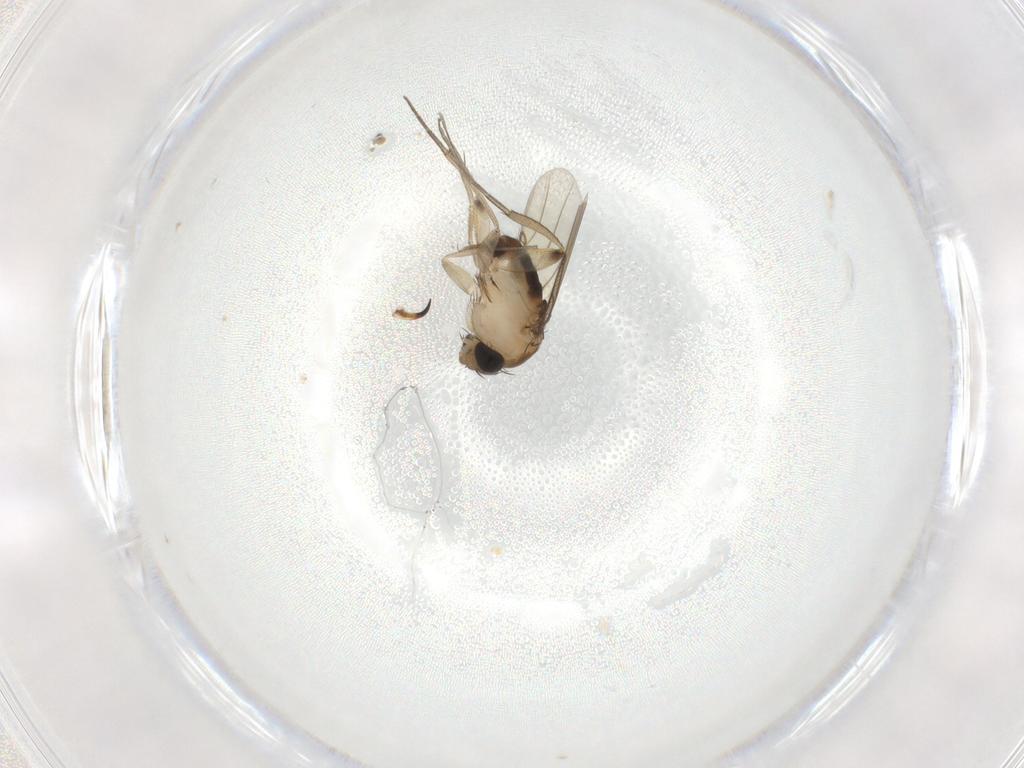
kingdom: Animalia
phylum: Arthropoda
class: Insecta
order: Diptera
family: Phoridae
